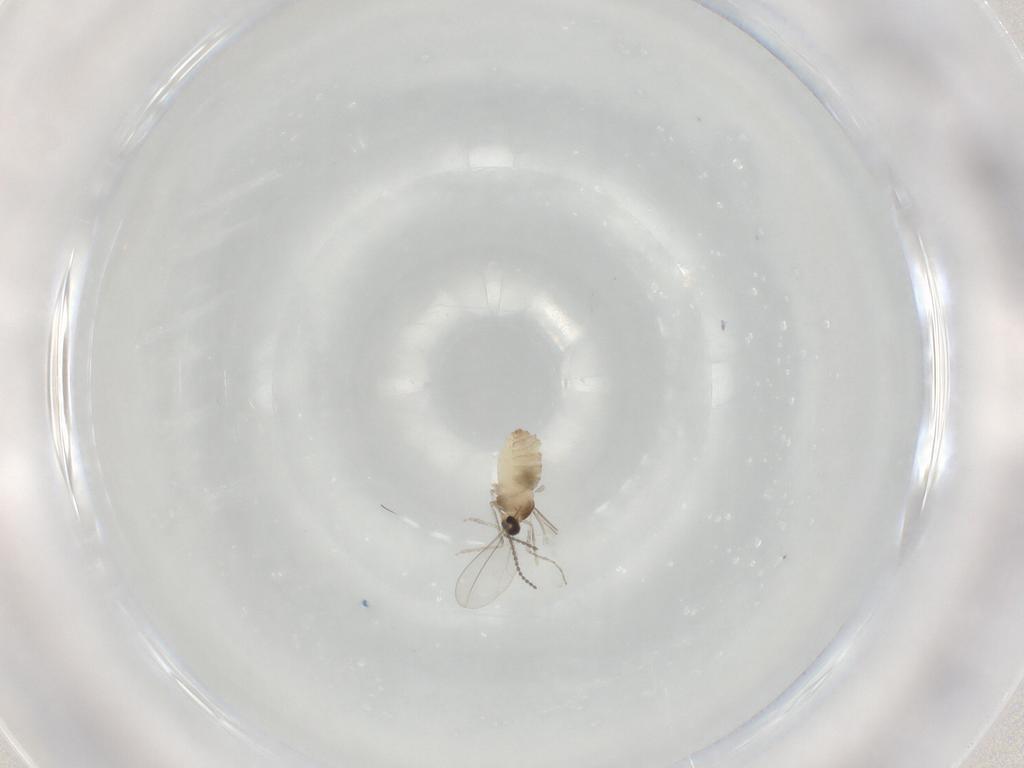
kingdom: Animalia
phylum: Arthropoda
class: Insecta
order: Diptera
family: Cecidomyiidae
